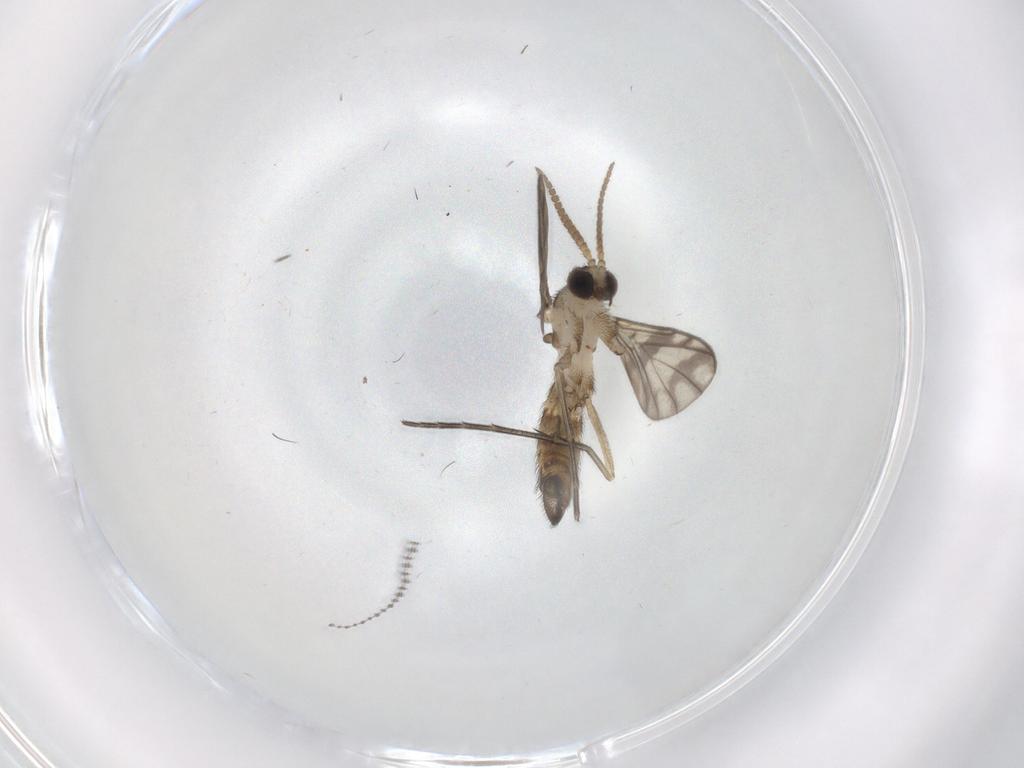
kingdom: Animalia
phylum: Arthropoda
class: Insecta
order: Diptera
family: Keroplatidae
